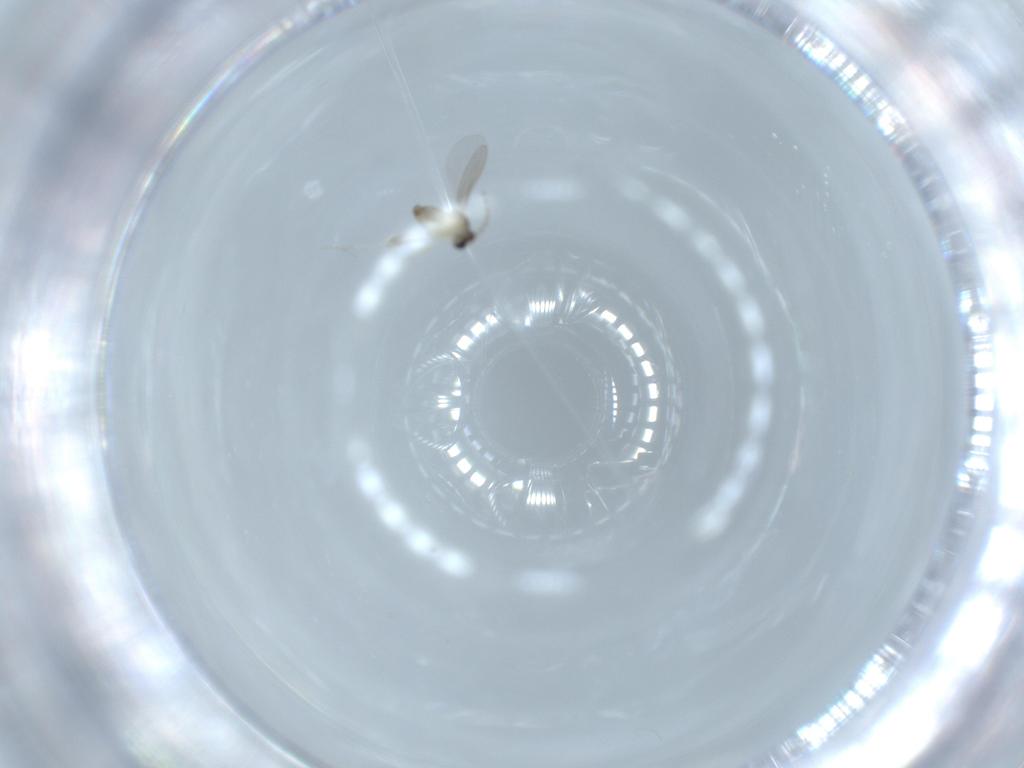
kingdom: Animalia
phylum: Arthropoda
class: Insecta
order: Diptera
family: Cecidomyiidae
